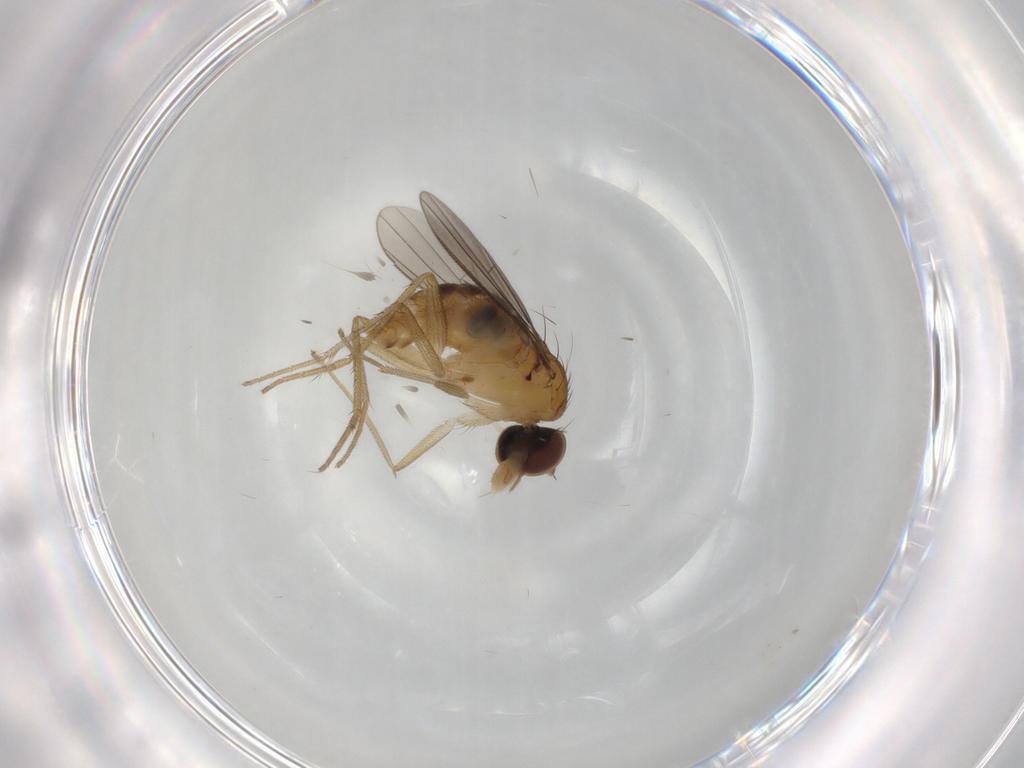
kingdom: Animalia
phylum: Arthropoda
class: Insecta
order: Diptera
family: Dolichopodidae
